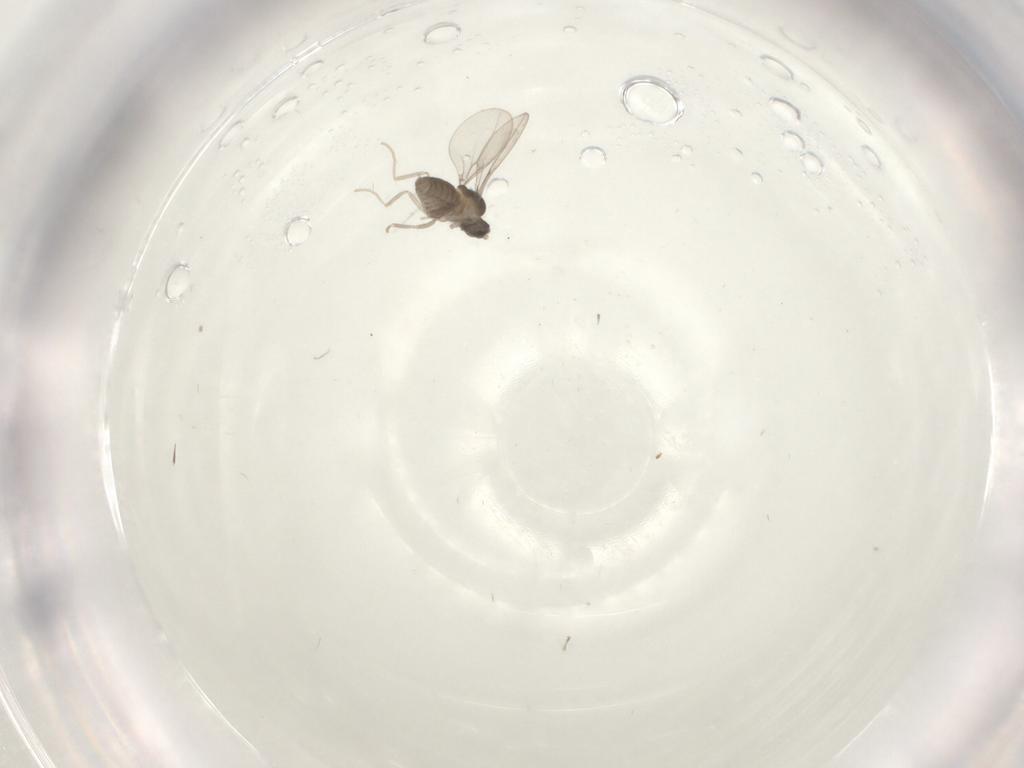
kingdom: Animalia
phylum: Arthropoda
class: Insecta
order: Diptera
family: Cecidomyiidae
